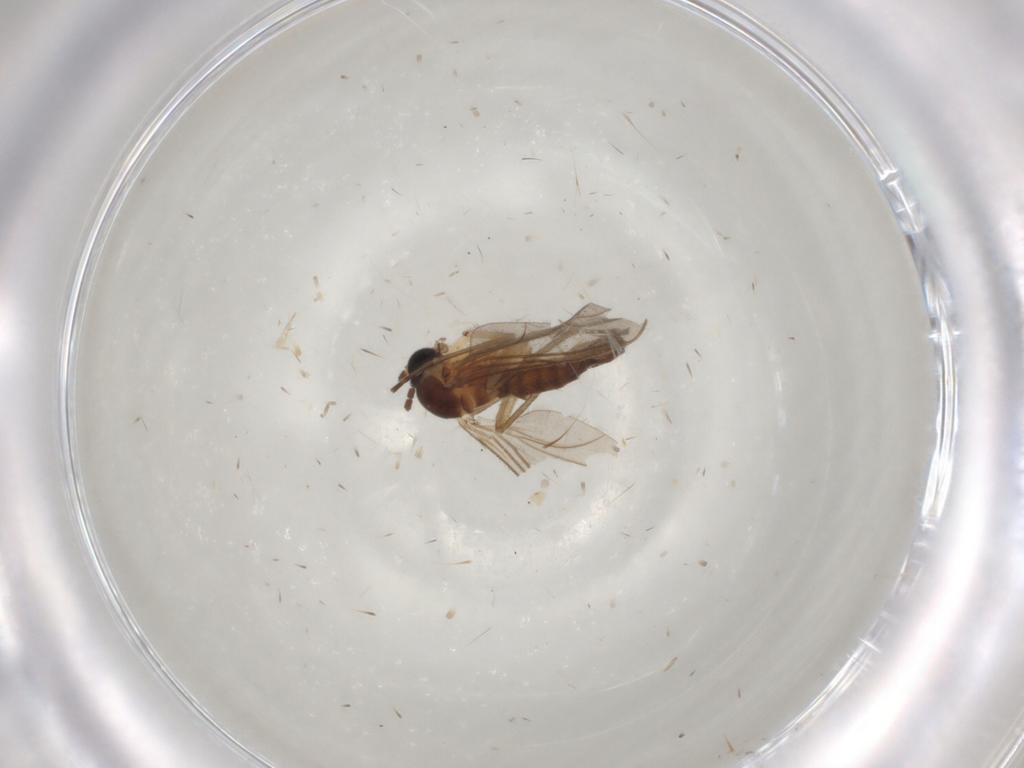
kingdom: Animalia
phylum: Arthropoda
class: Insecta
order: Diptera
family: Sciaridae
